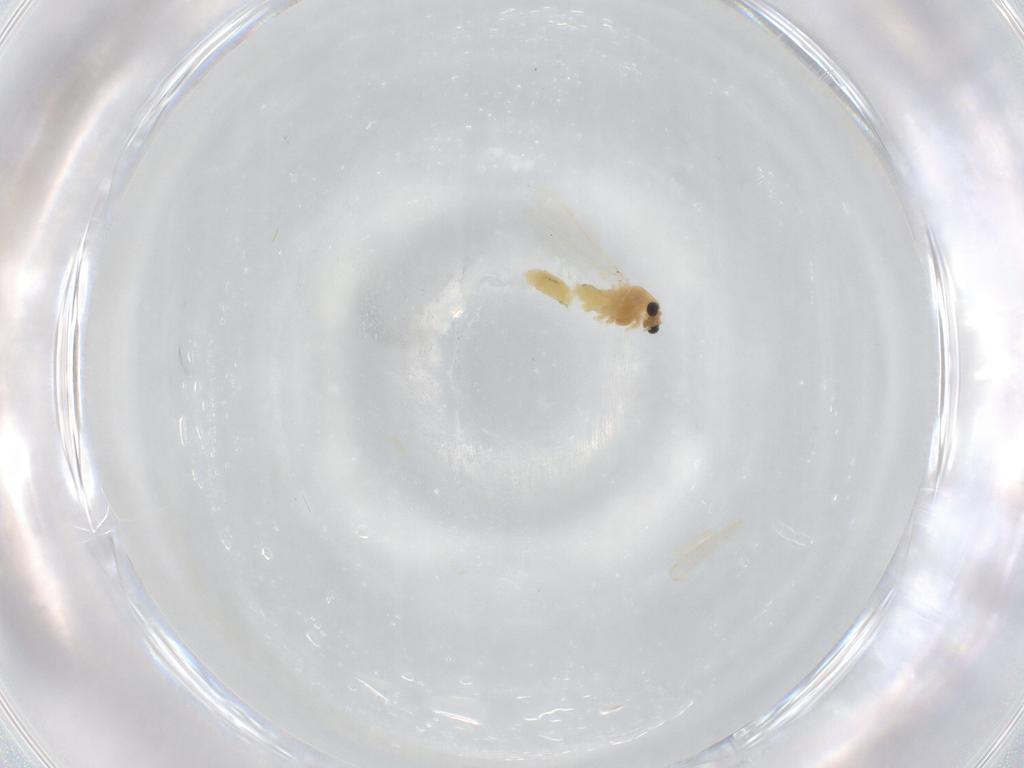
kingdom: Animalia
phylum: Arthropoda
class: Insecta
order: Diptera
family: Chironomidae
